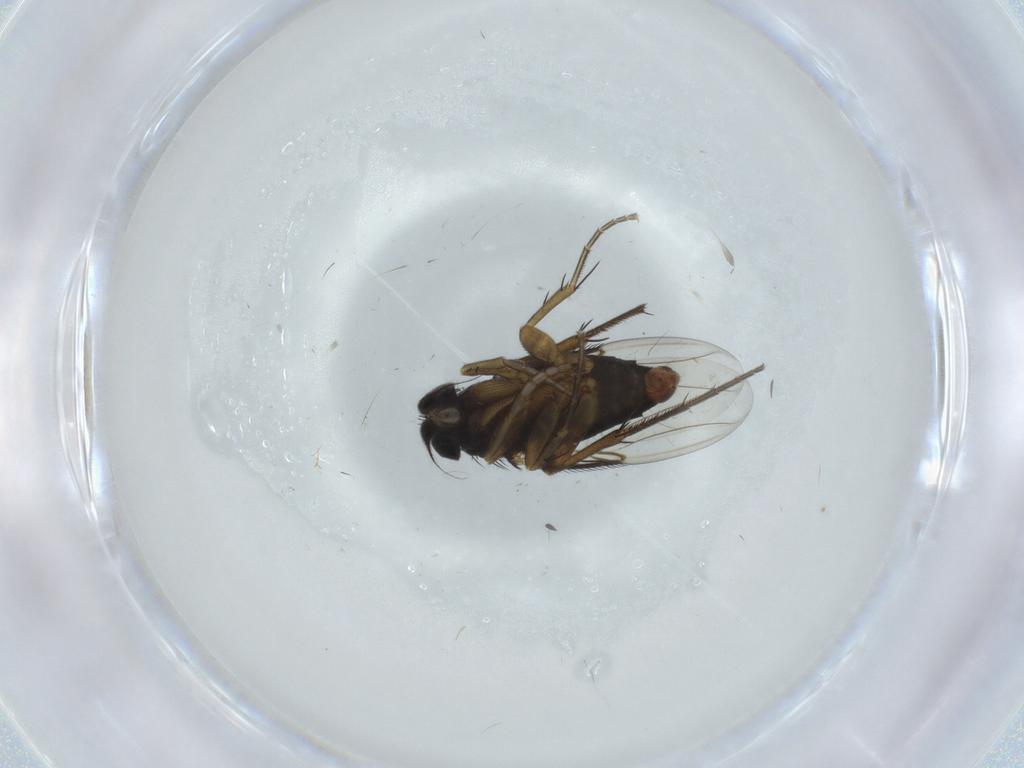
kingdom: Animalia
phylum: Arthropoda
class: Insecta
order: Diptera
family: Phoridae
